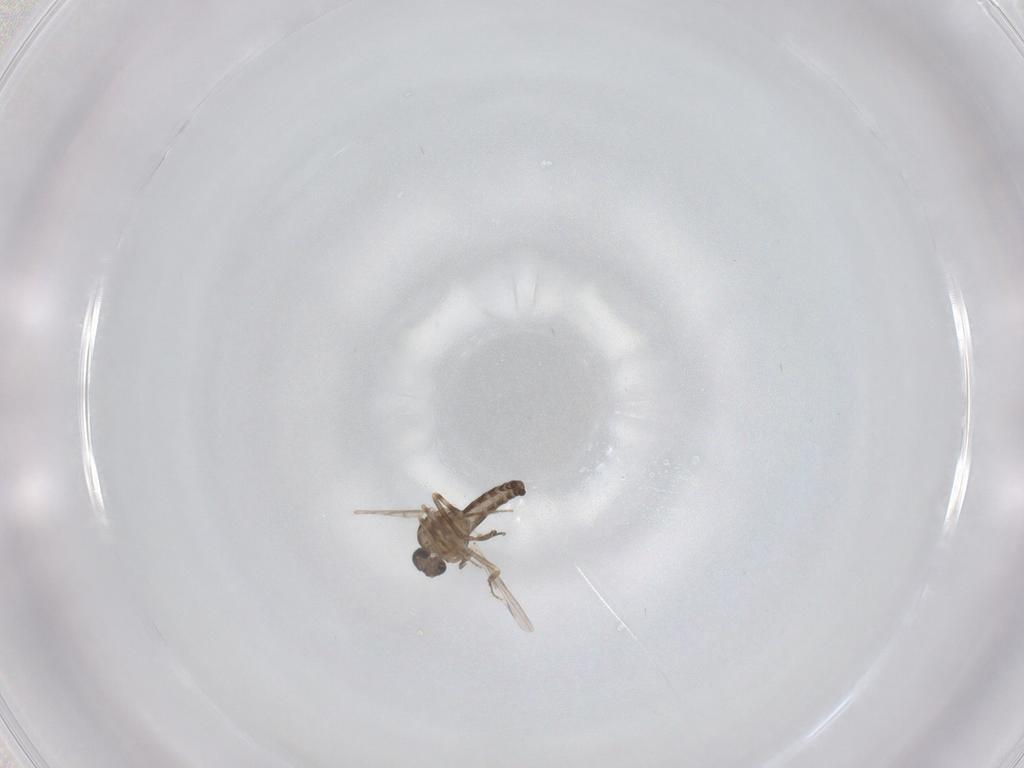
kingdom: Animalia
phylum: Arthropoda
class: Insecta
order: Diptera
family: Ceratopogonidae
